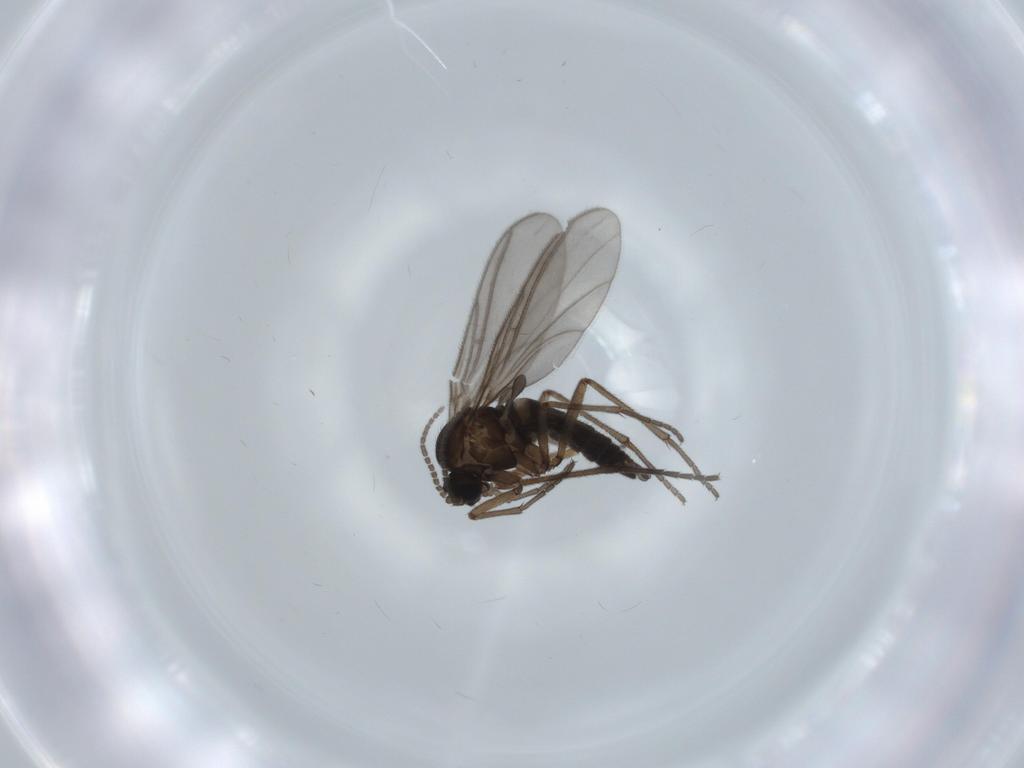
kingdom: Animalia
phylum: Arthropoda
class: Insecta
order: Diptera
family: Sciaridae
